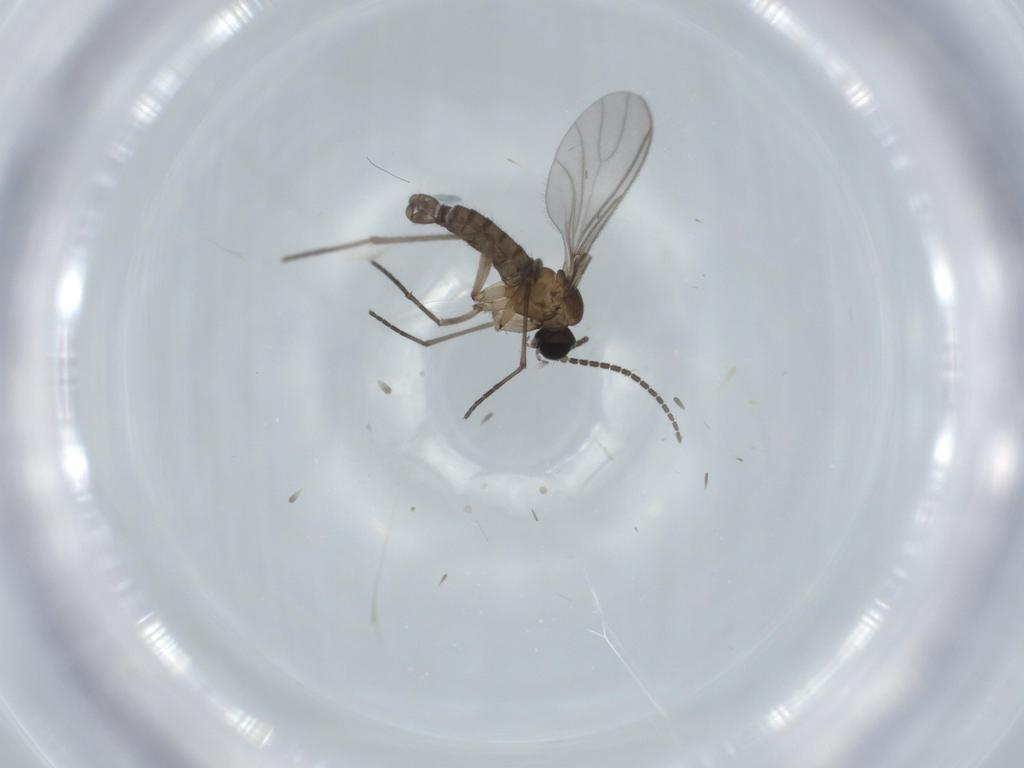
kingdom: Animalia
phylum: Arthropoda
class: Insecta
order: Diptera
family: Sciaridae
